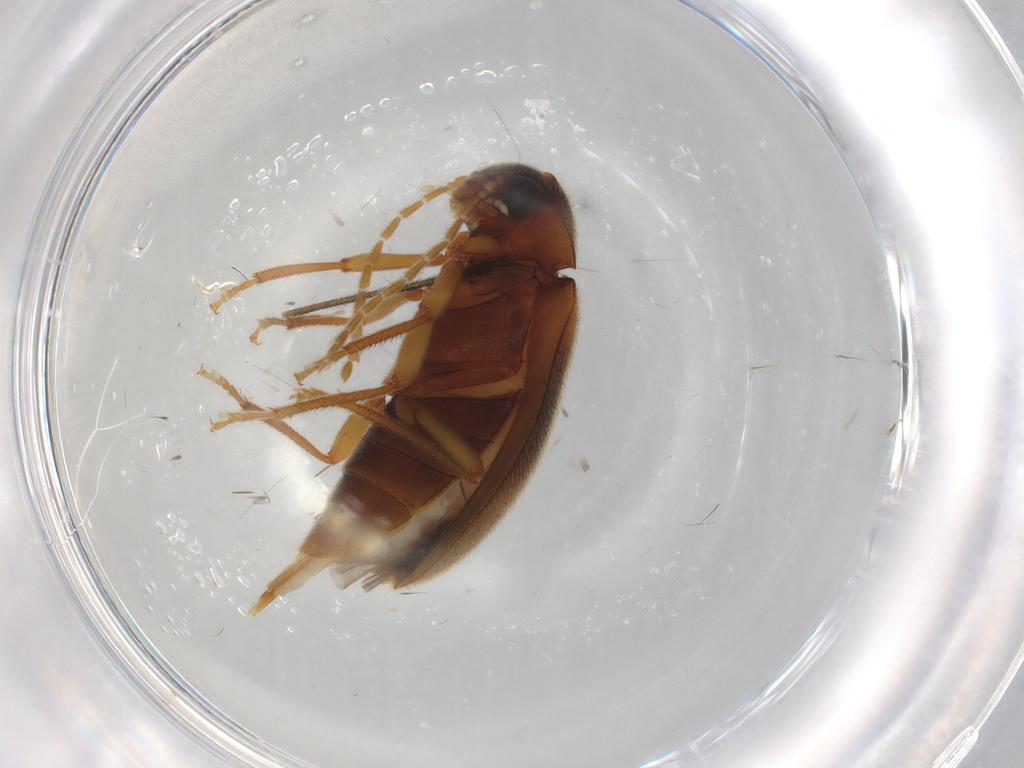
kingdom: Animalia
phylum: Arthropoda
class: Insecta
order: Coleoptera
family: Ptilodactylidae
